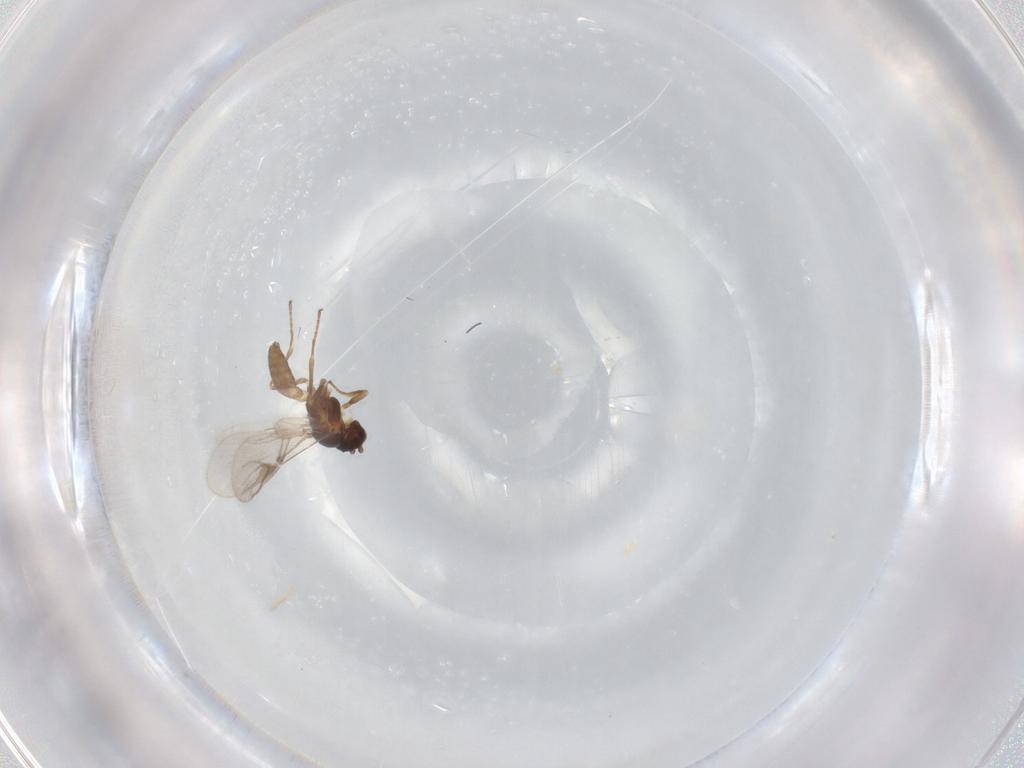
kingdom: Animalia
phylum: Arthropoda
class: Insecta
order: Hymenoptera
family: Braconidae
